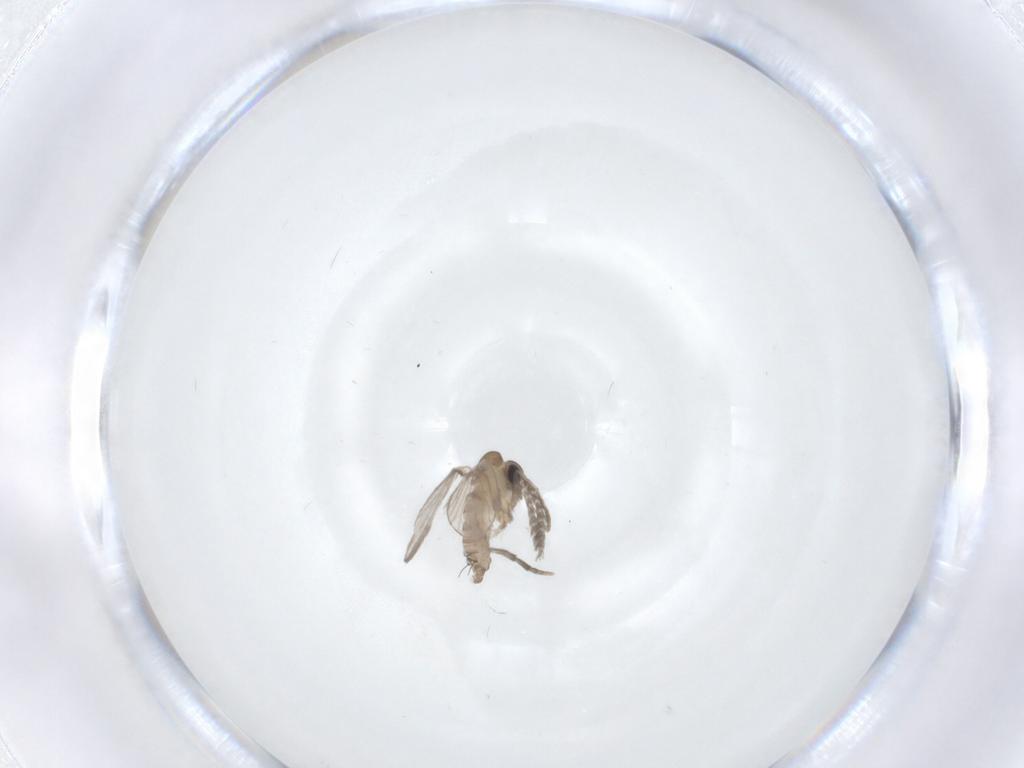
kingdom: Animalia
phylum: Arthropoda
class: Insecta
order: Diptera
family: Psychodidae
